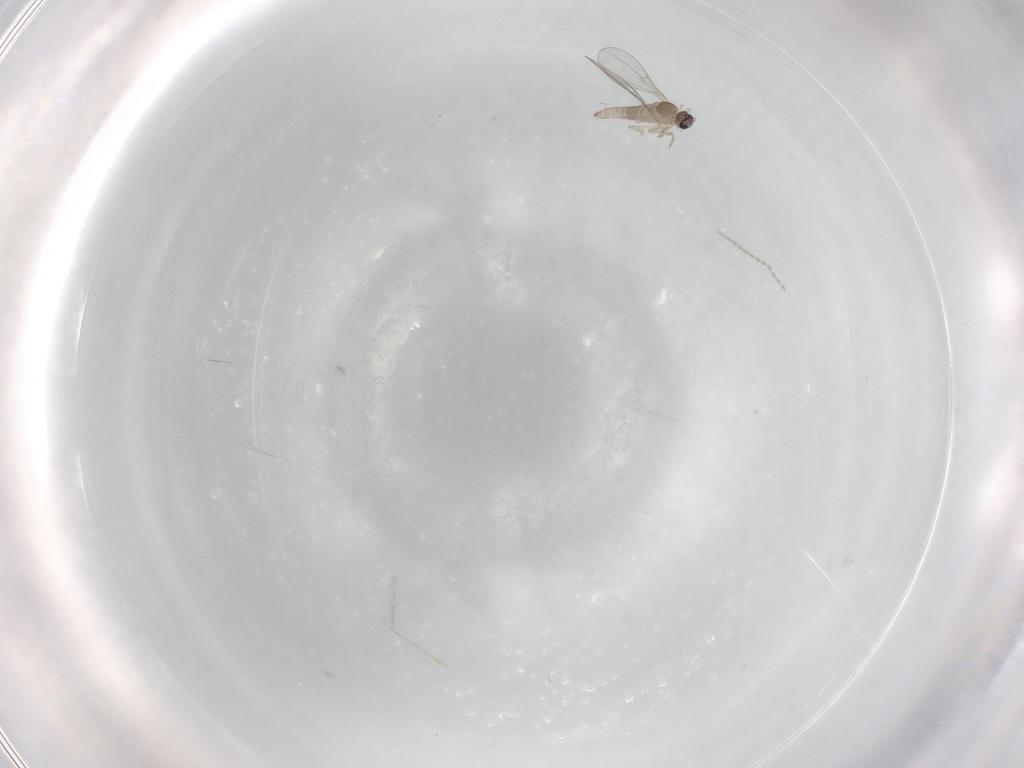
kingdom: Animalia
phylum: Arthropoda
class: Insecta
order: Diptera
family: Cecidomyiidae
